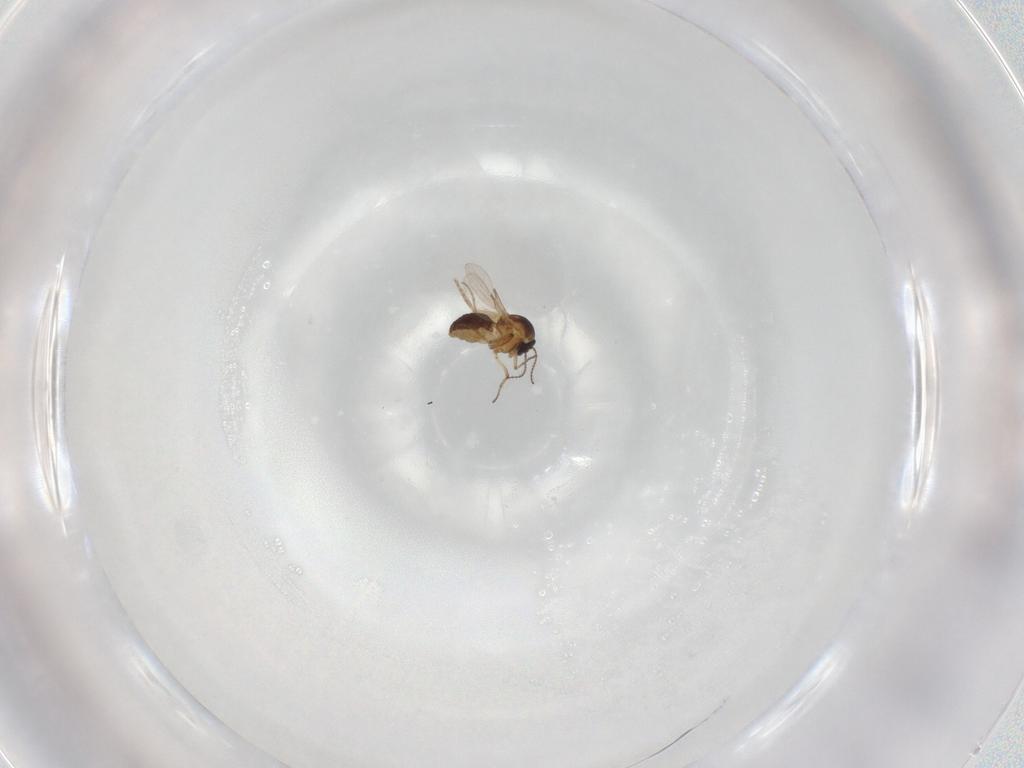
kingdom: Animalia
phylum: Arthropoda
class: Insecta
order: Diptera
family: Ceratopogonidae
